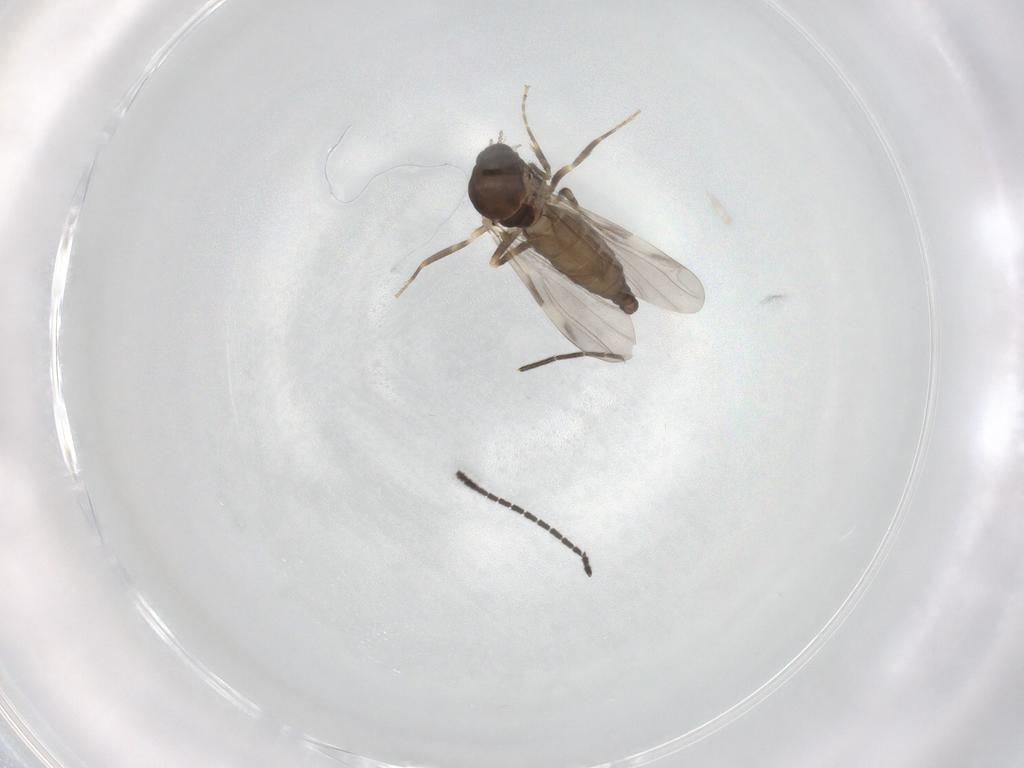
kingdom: Animalia
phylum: Arthropoda
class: Insecta
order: Diptera
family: Ceratopogonidae
